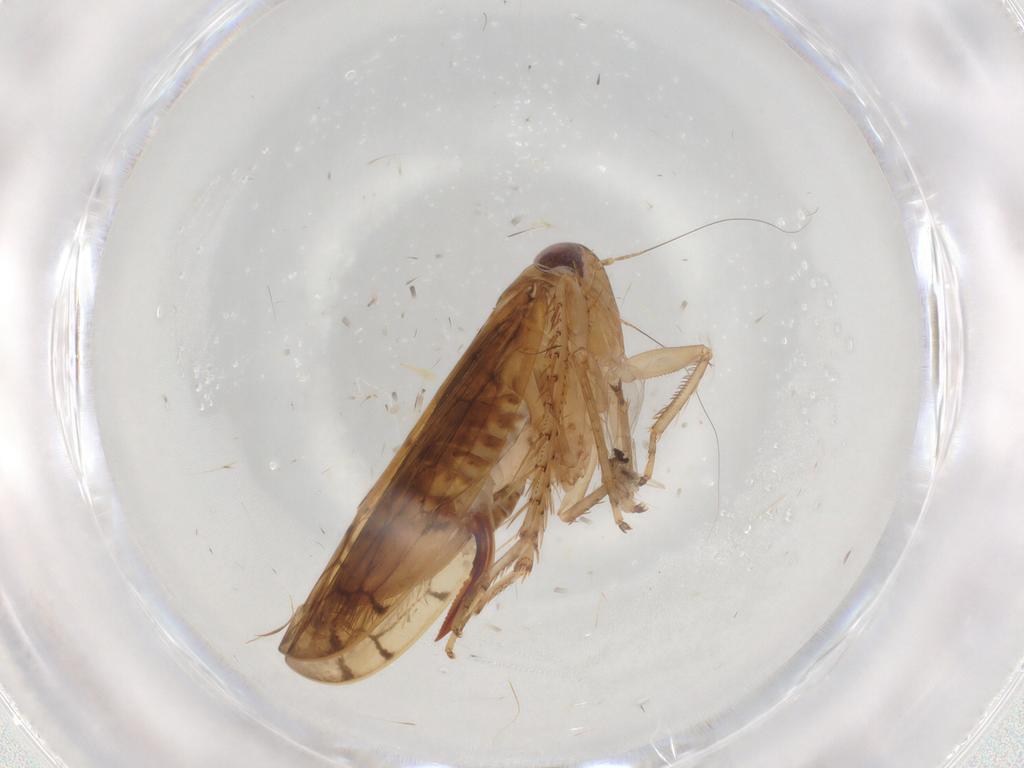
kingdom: Animalia
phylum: Arthropoda
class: Insecta
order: Hemiptera
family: Cicadellidae
